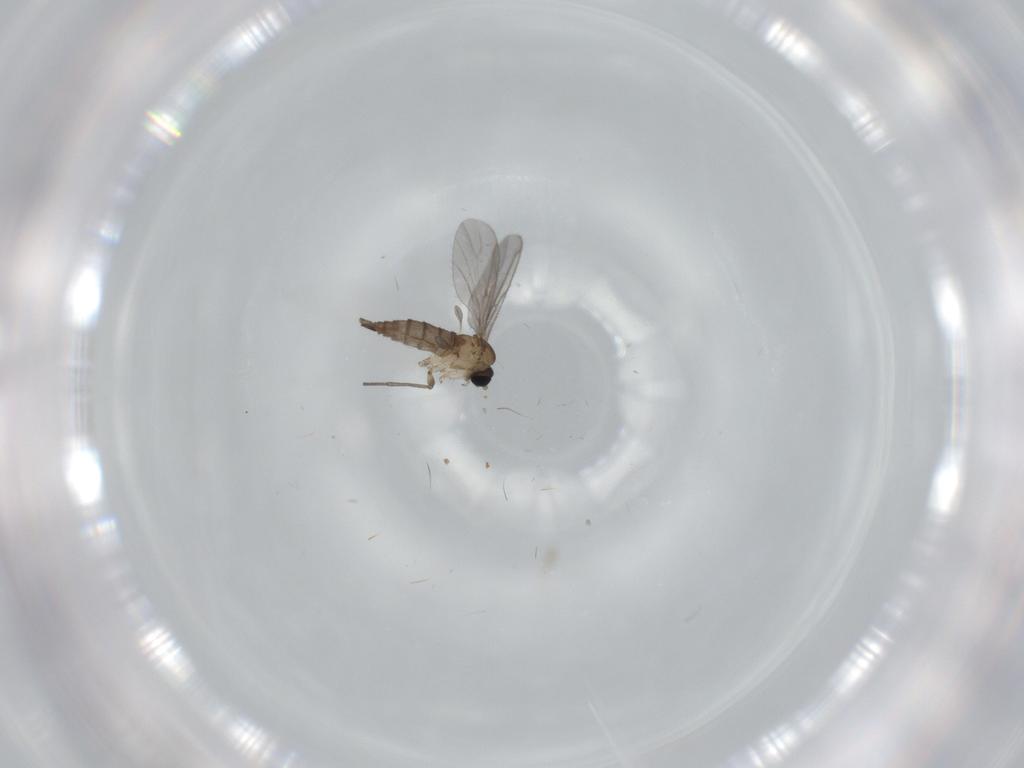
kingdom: Animalia
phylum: Arthropoda
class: Insecta
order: Diptera
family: Sciaridae
